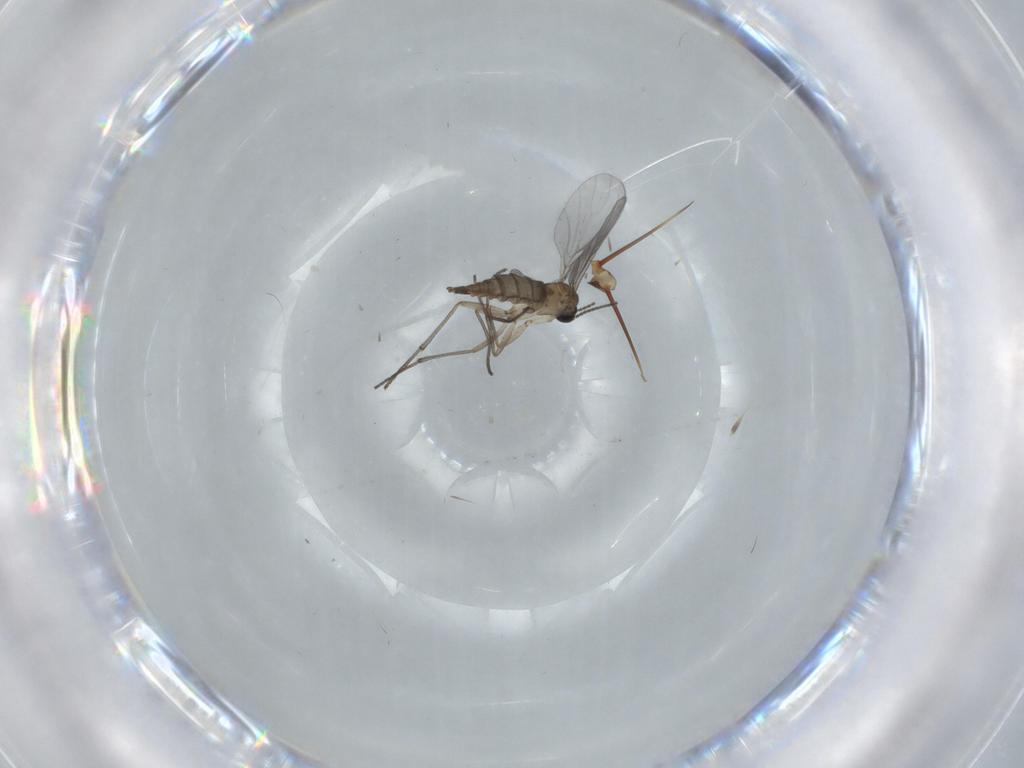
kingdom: Animalia
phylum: Arthropoda
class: Insecta
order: Diptera
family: Sciaridae
